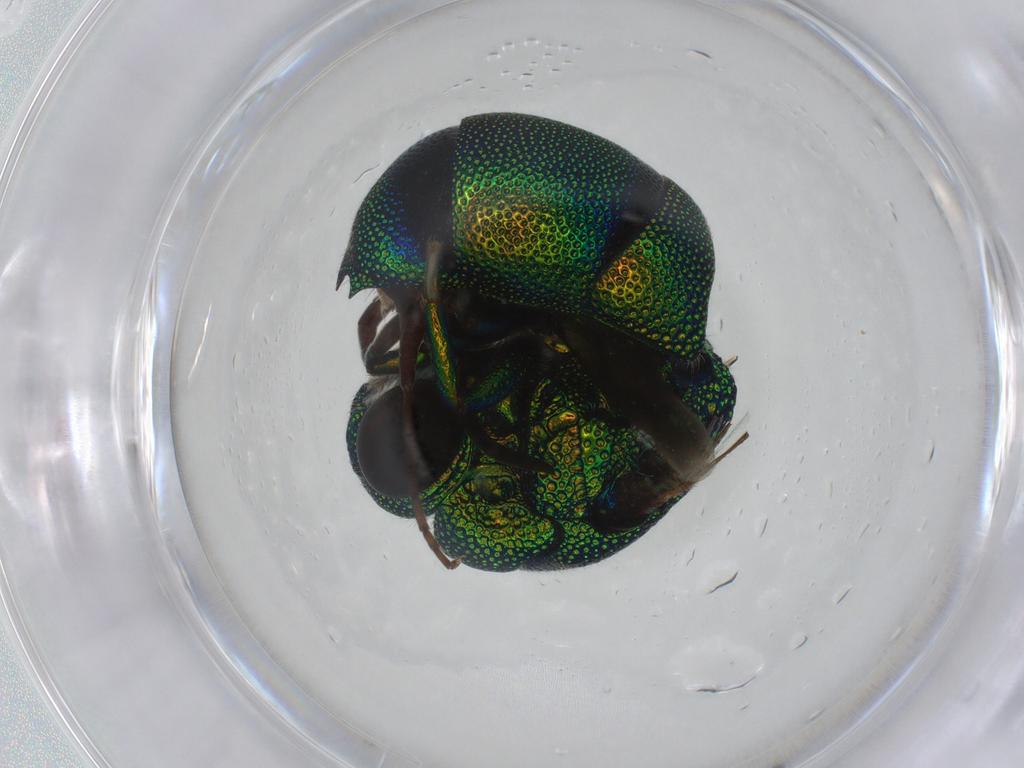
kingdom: Animalia
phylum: Arthropoda
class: Insecta
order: Hymenoptera
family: Chrysididae
